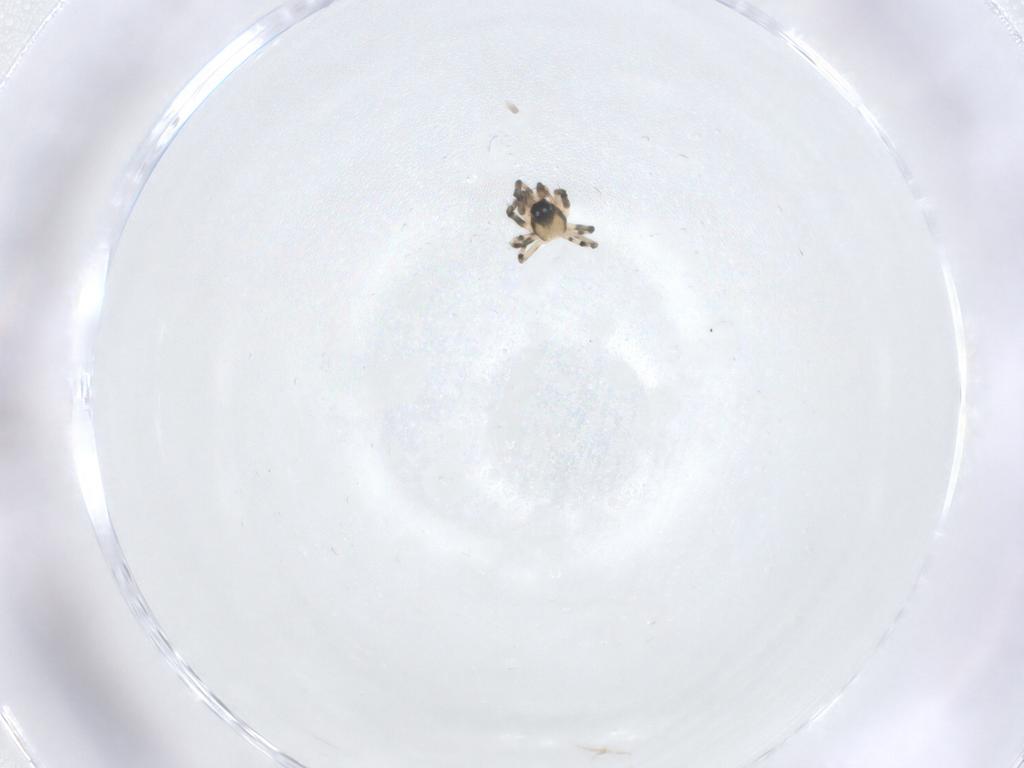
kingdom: Animalia
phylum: Arthropoda
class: Arachnida
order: Araneae
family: Mysmenidae
